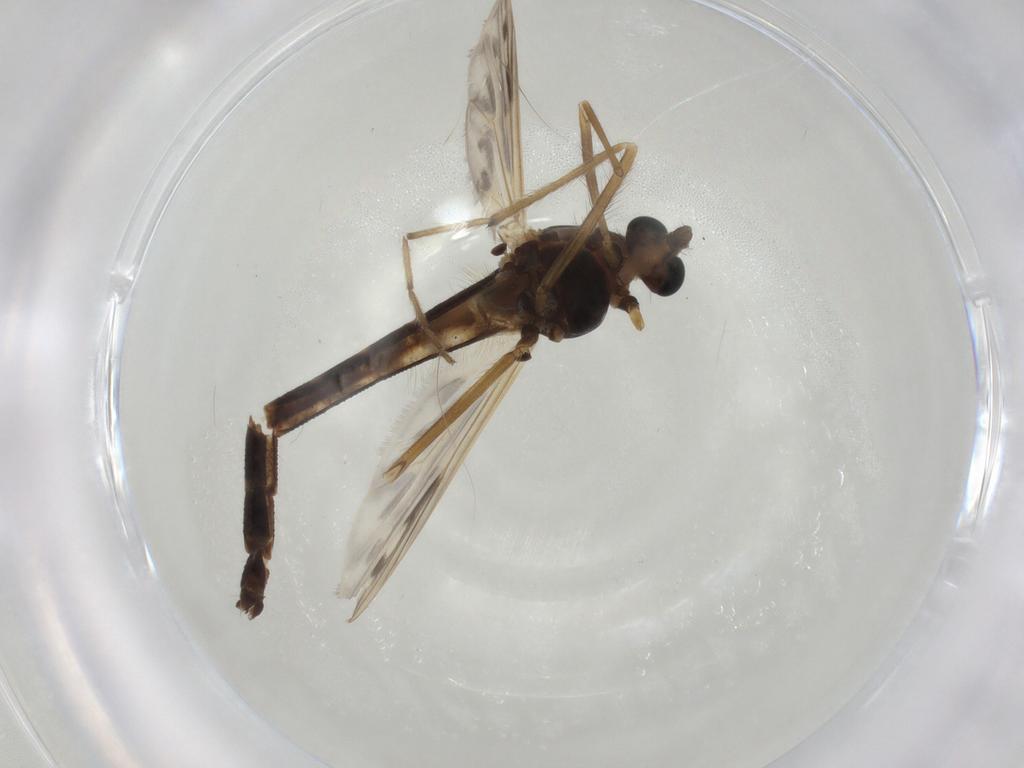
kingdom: Animalia
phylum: Arthropoda
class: Insecta
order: Diptera
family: Chironomidae
